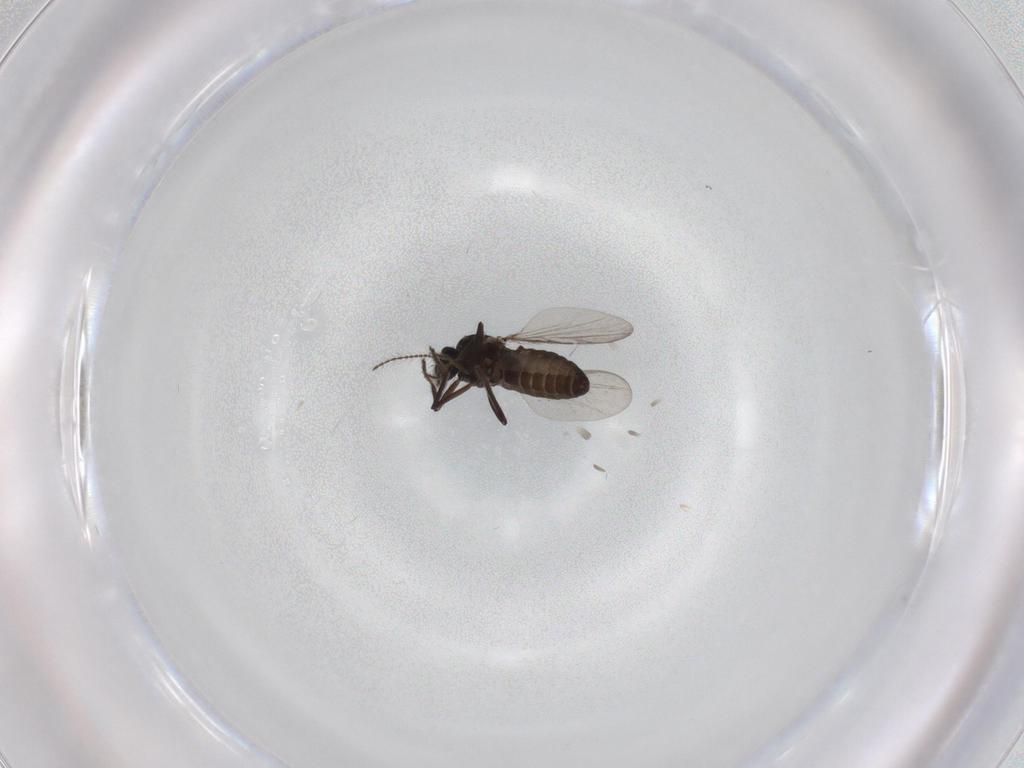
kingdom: Animalia
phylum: Arthropoda
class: Insecta
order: Diptera
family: Ceratopogonidae
